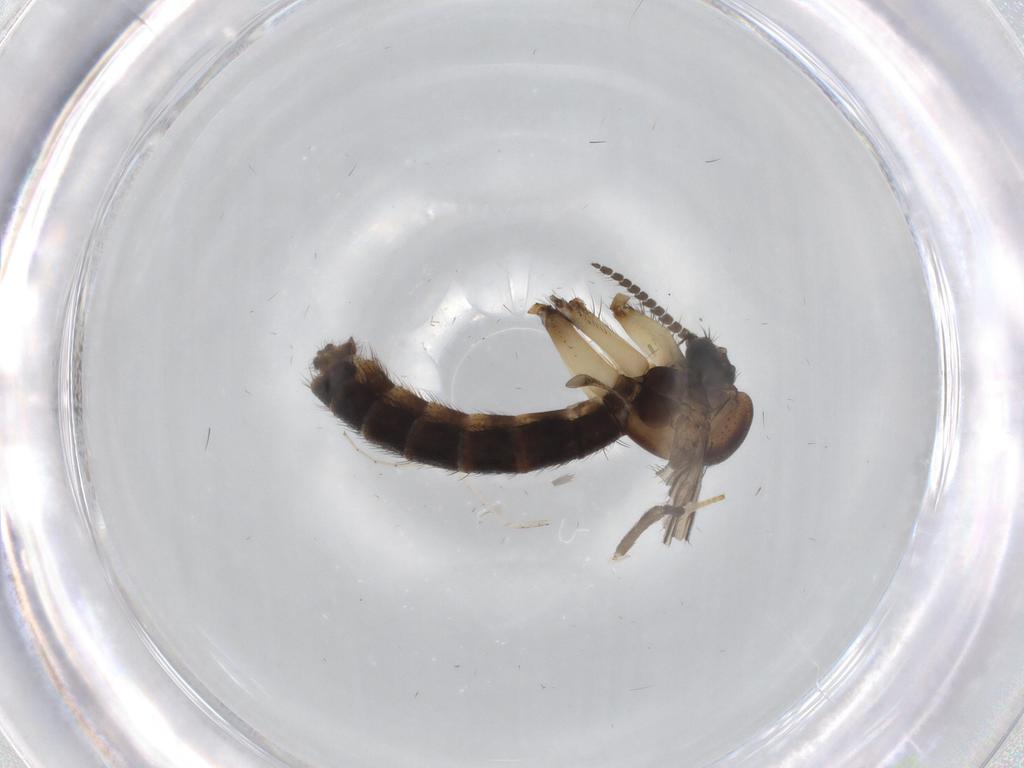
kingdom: Animalia
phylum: Arthropoda
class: Insecta
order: Diptera
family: Cecidomyiidae
